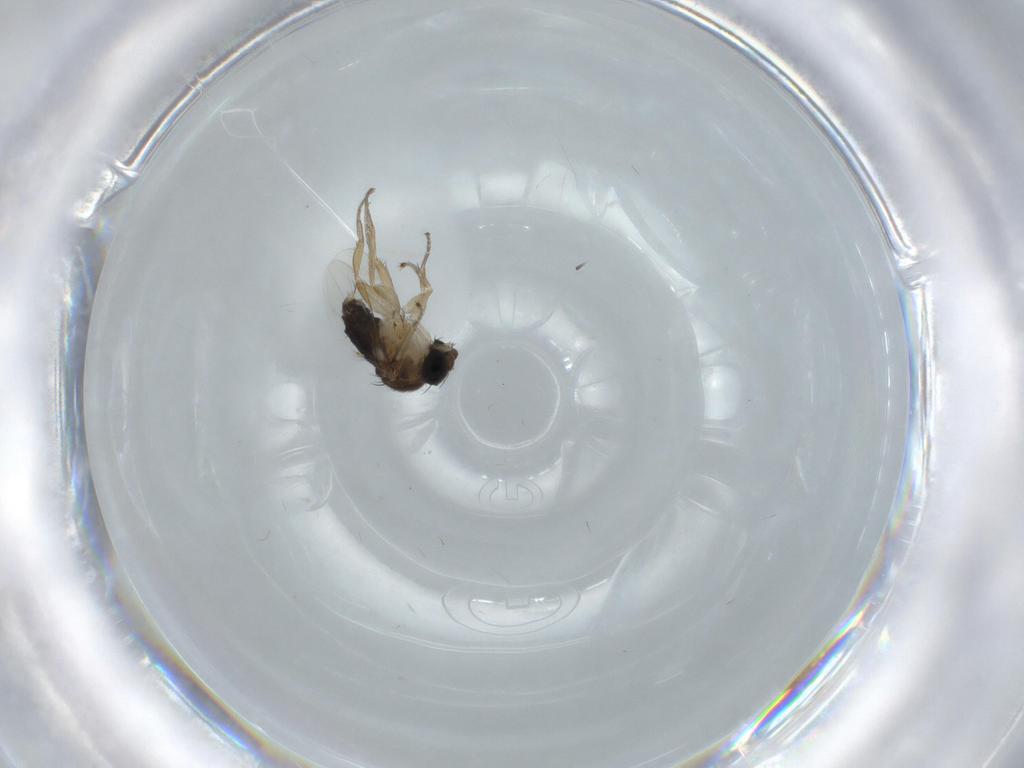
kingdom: Animalia
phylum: Arthropoda
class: Insecta
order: Diptera
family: Phoridae
